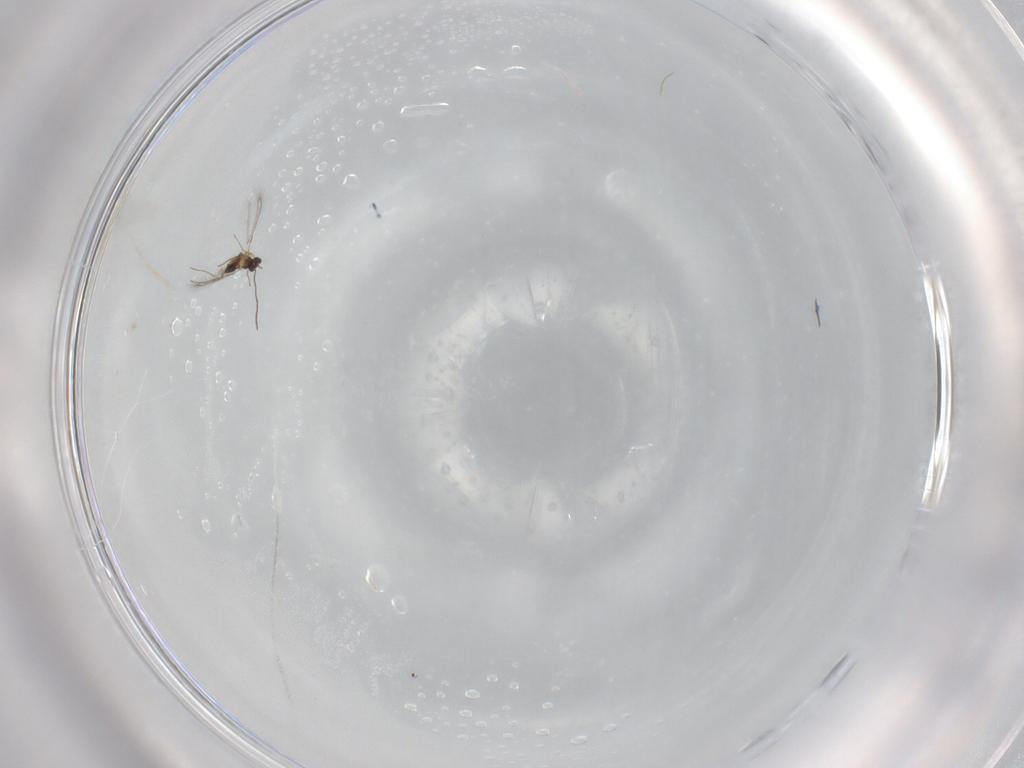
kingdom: Animalia
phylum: Arthropoda
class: Insecta
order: Hymenoptera
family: Mymaridae
